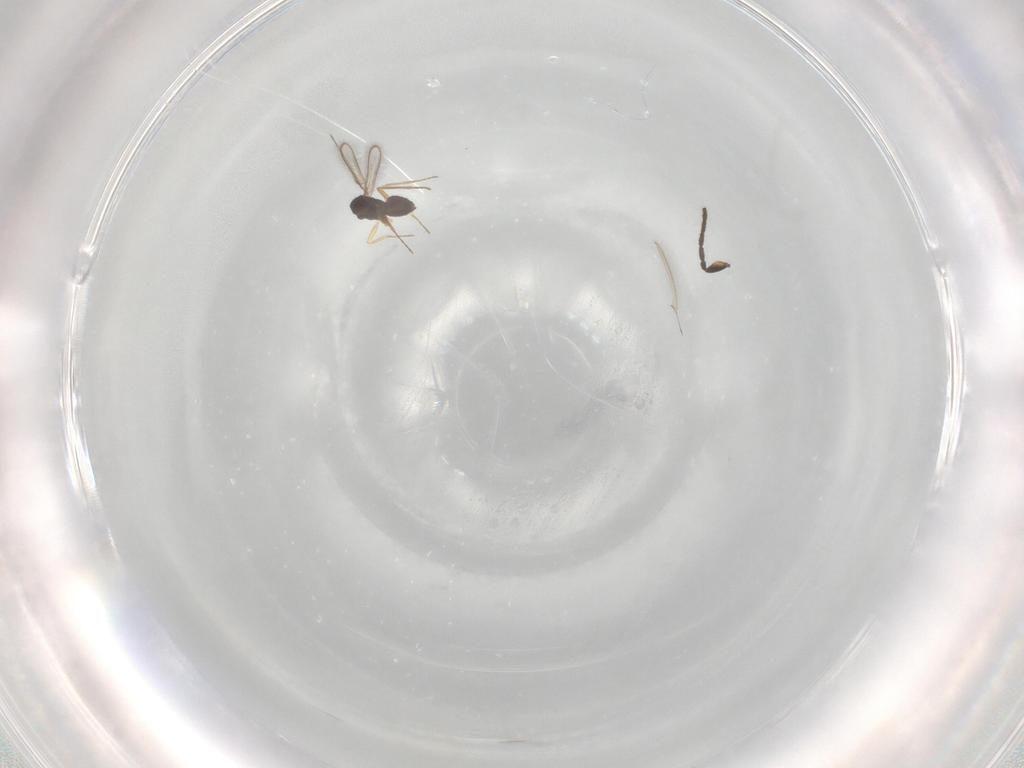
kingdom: Animalia
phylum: Arthropoda
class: Insecta
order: Hymenoptera
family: Mymaridae
